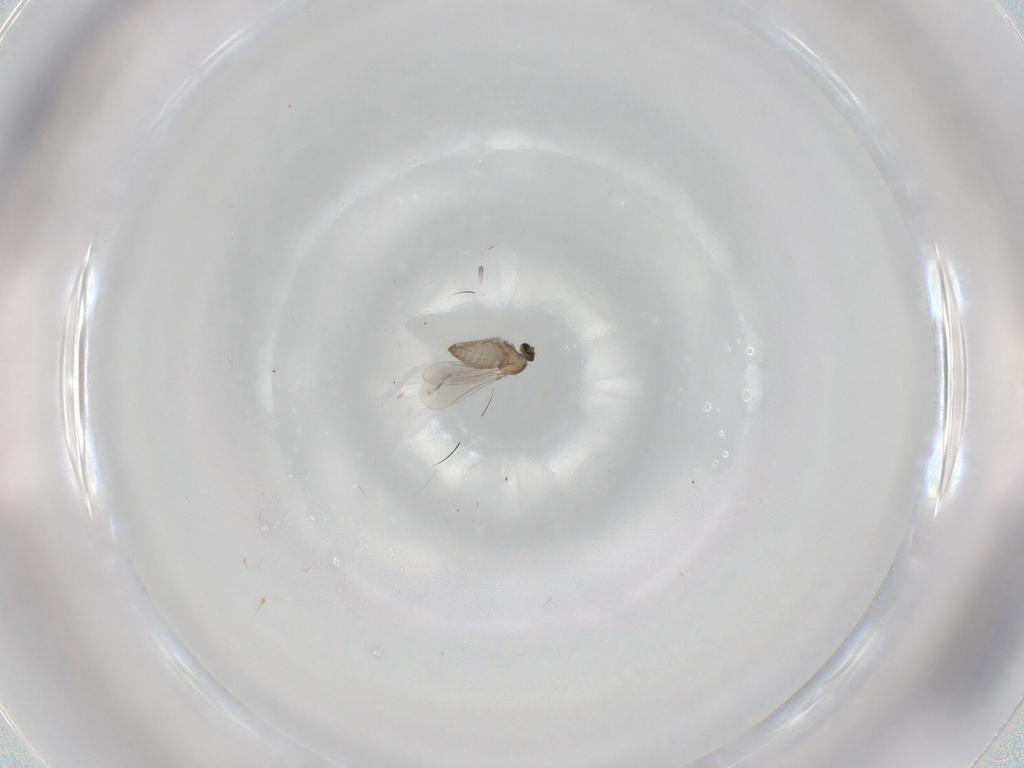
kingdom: Animalia
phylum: Arthropoda
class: Insecta
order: Diptera
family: Cecidomyiidae
